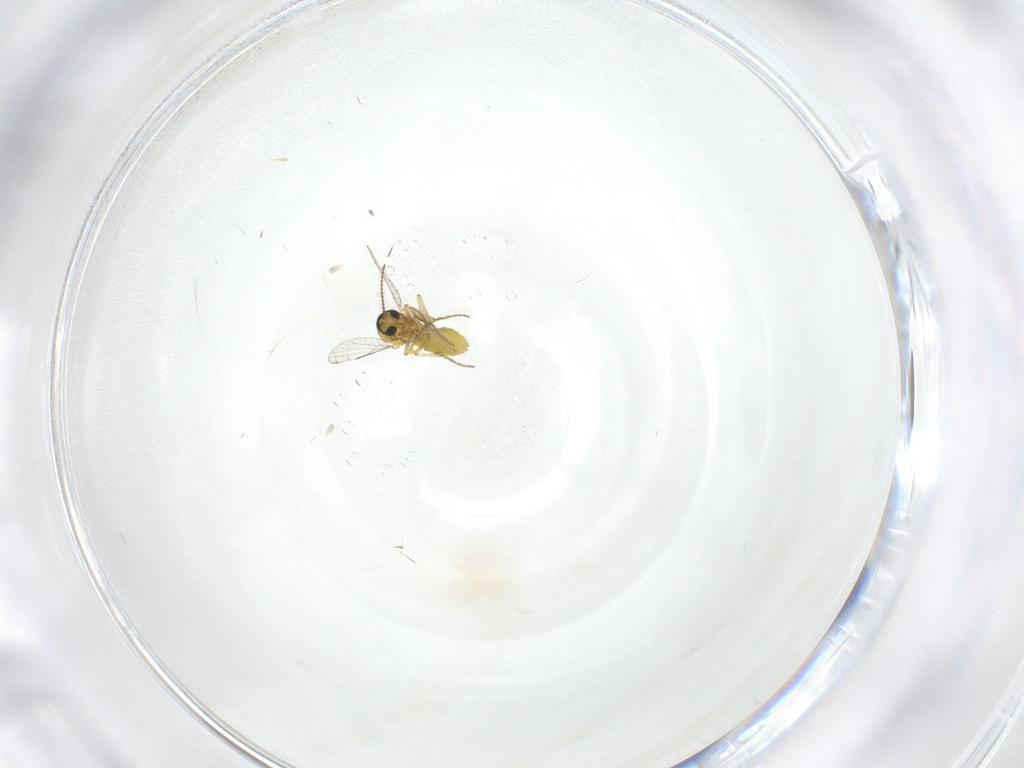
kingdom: Animalia
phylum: Arthropoda
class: Insecta
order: Diptera
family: Ceratopogonidae
